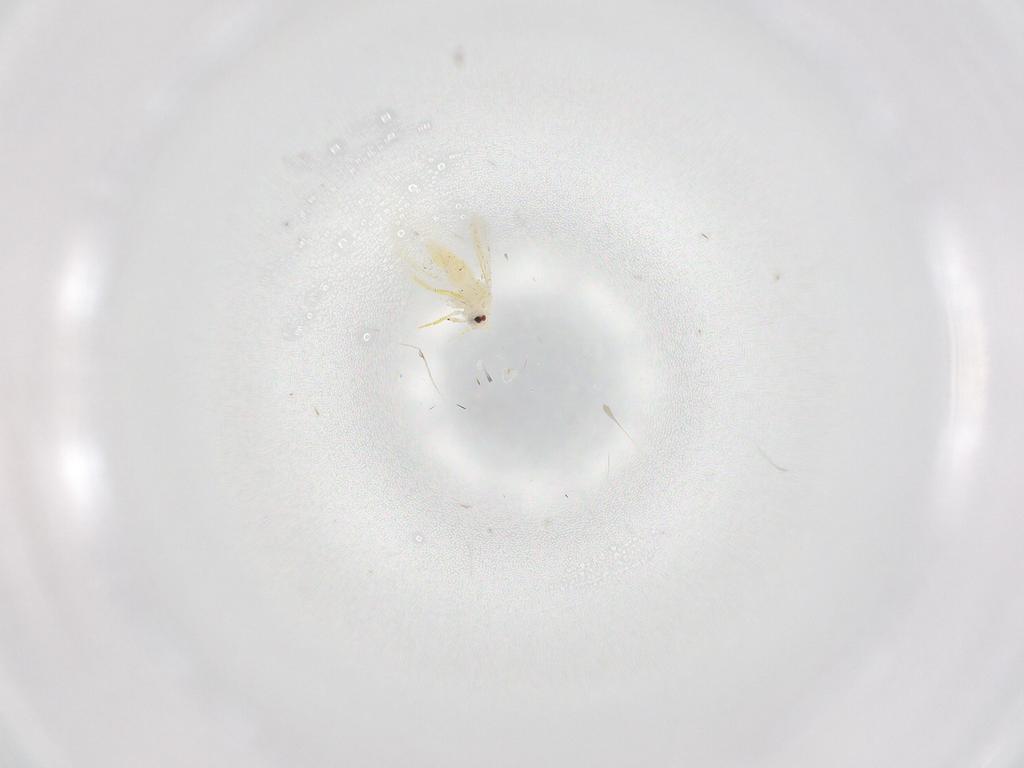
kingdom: Animalia
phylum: Arthropoda
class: Insecta
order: Hemiptera
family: Aleyrodidae
